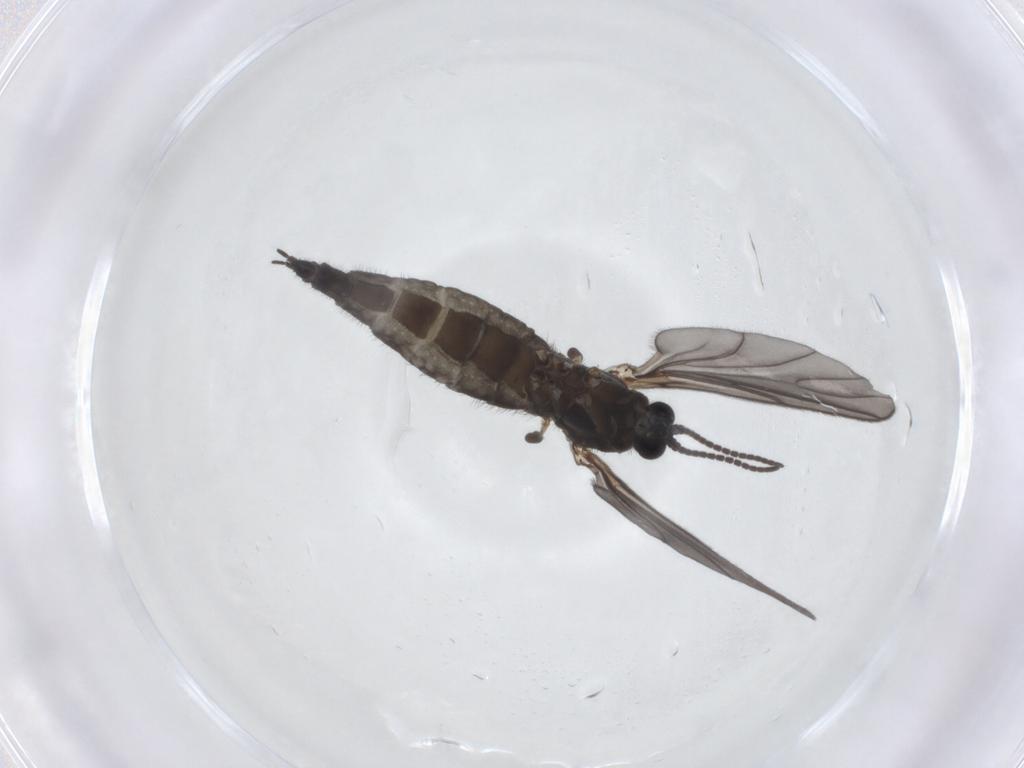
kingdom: Animalia
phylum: Arthropoda
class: Insecta
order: Diptera
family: Sciaridae
